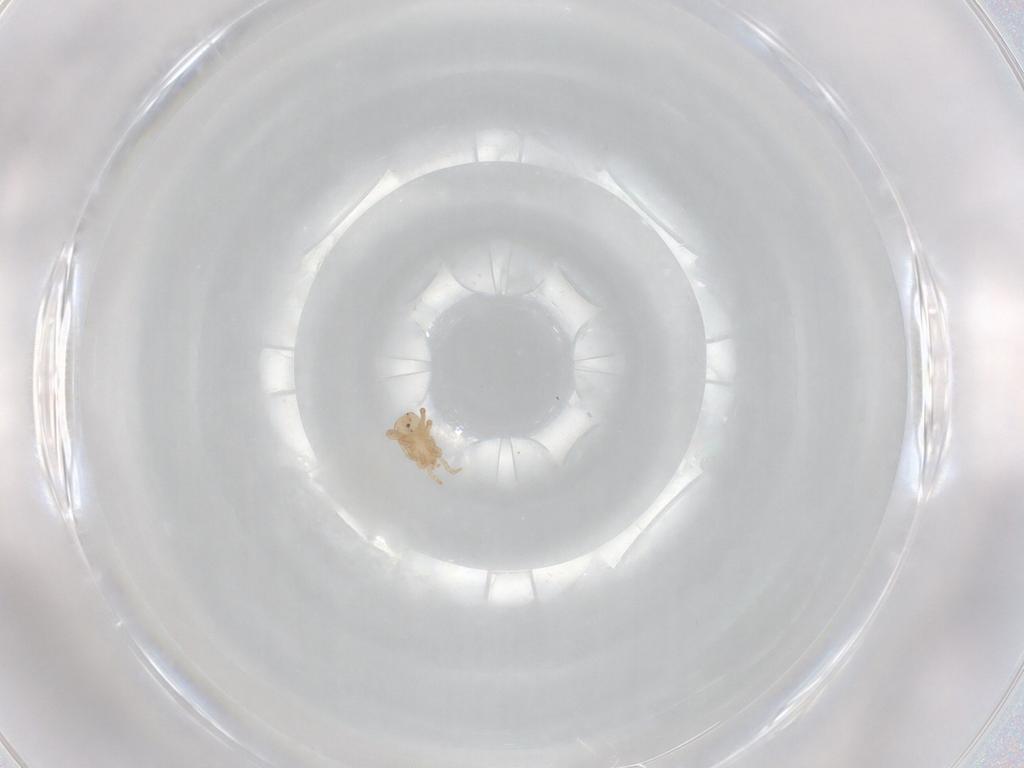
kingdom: Animalia
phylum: Arthropoda
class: Arachnida
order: Mesostigmata
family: Halolaelapidae
